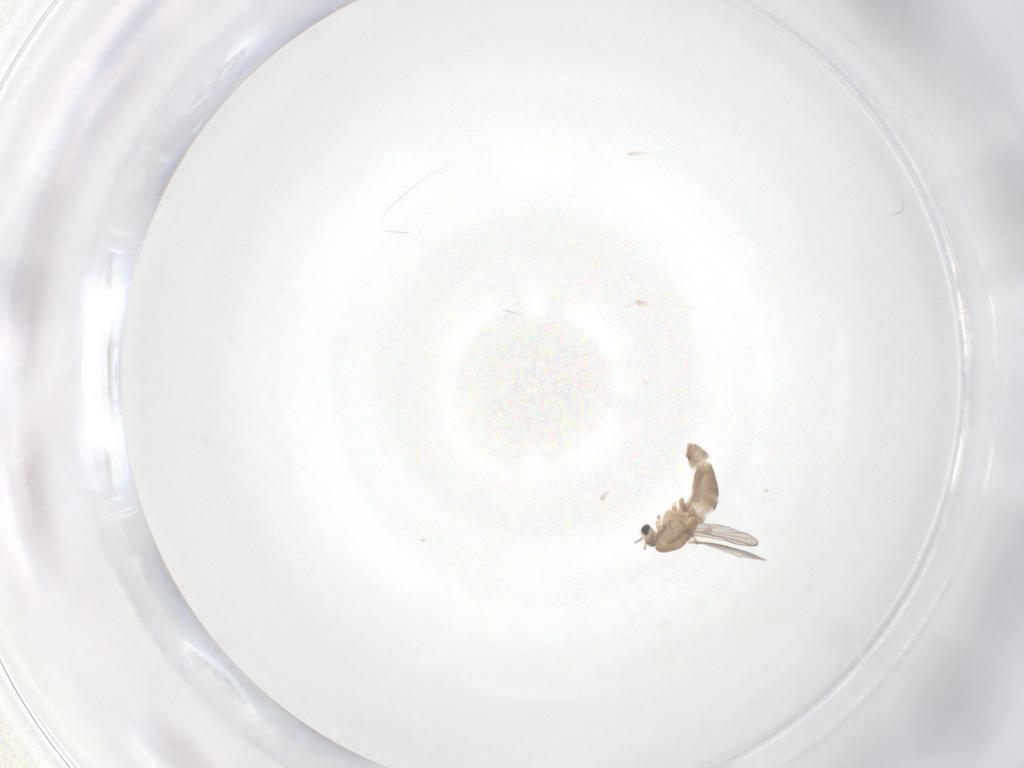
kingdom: Animalia
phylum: Arthropoda
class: Insecta
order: Diptera
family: Chironomidae
